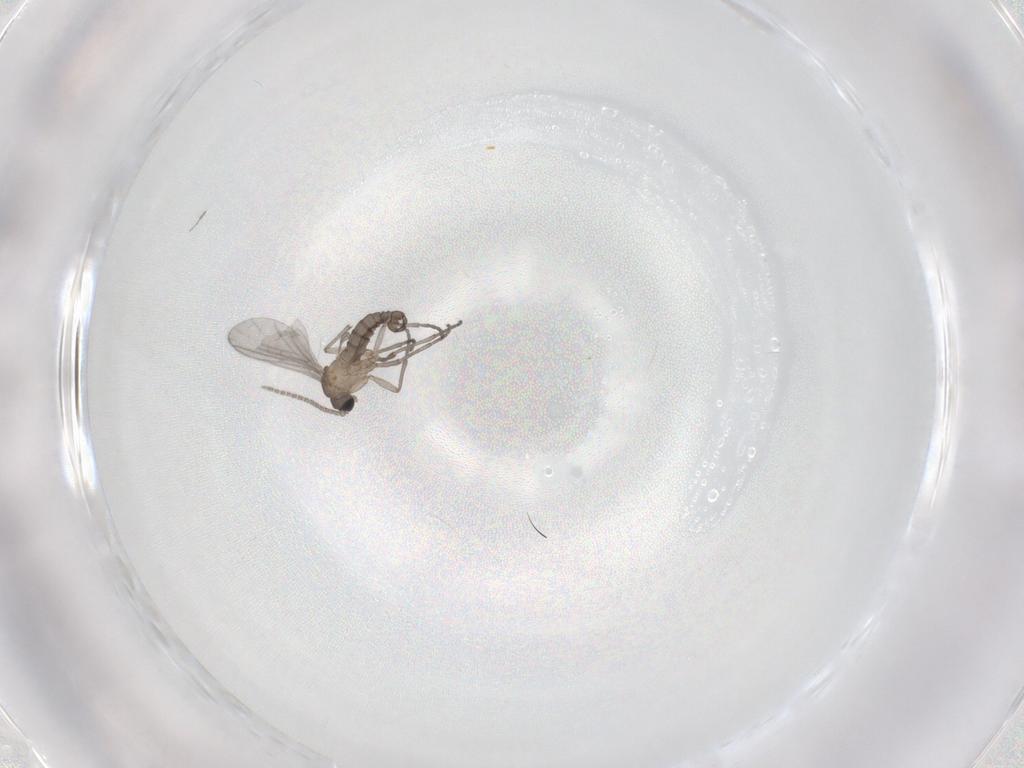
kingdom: Animalia
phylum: Arthropoda
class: Insecta
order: Diptera
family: Sciaridae
